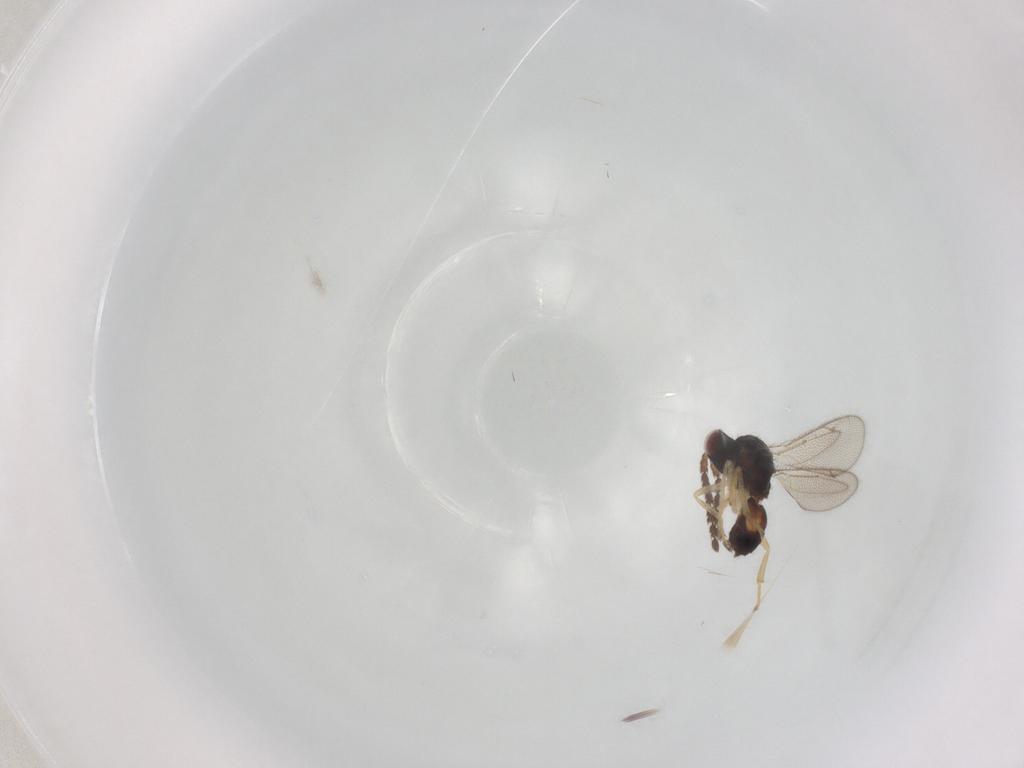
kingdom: Animalia
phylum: Arthropoda
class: Insecta
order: Hymenoptera
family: Eulophidae
